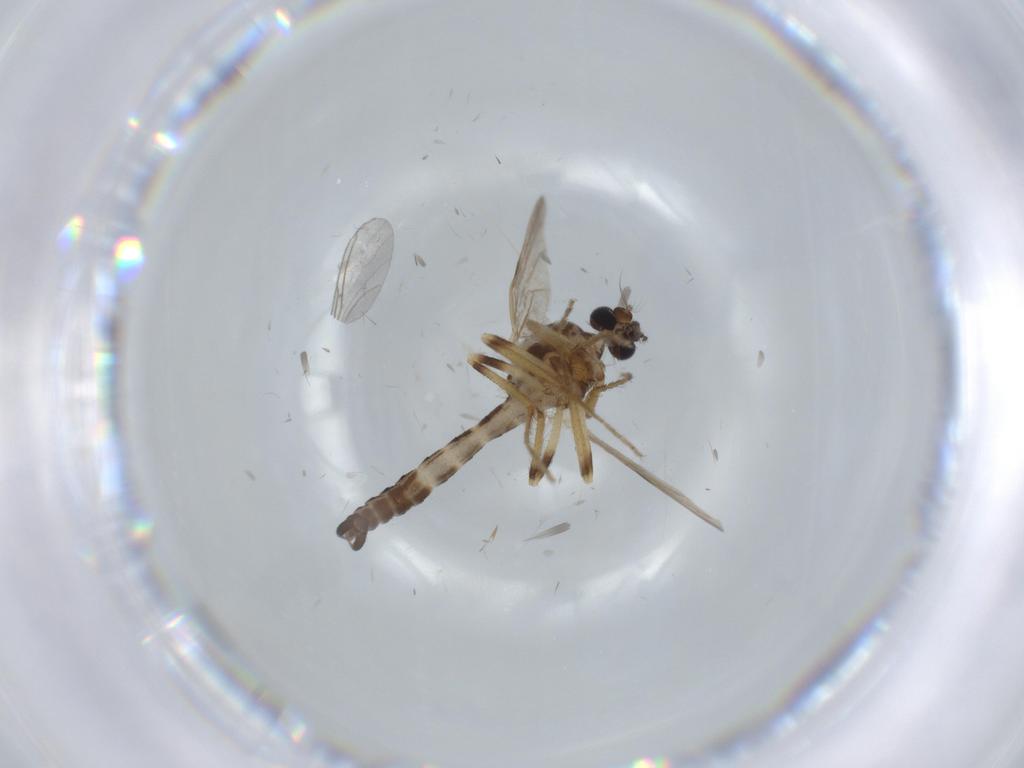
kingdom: Animalia
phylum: Arthropoda
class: Insecta
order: Diptera
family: Ceratopogonidae
